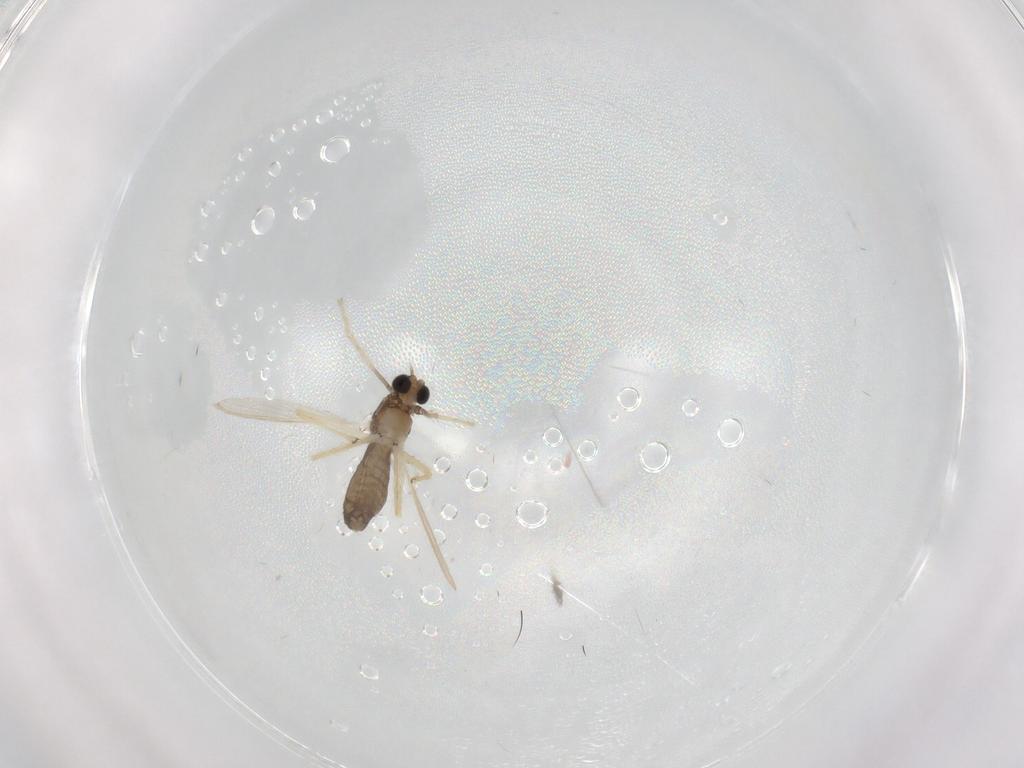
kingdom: Animalia
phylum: Arthropoda
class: Insecta
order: Diptera
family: Chironomidae
